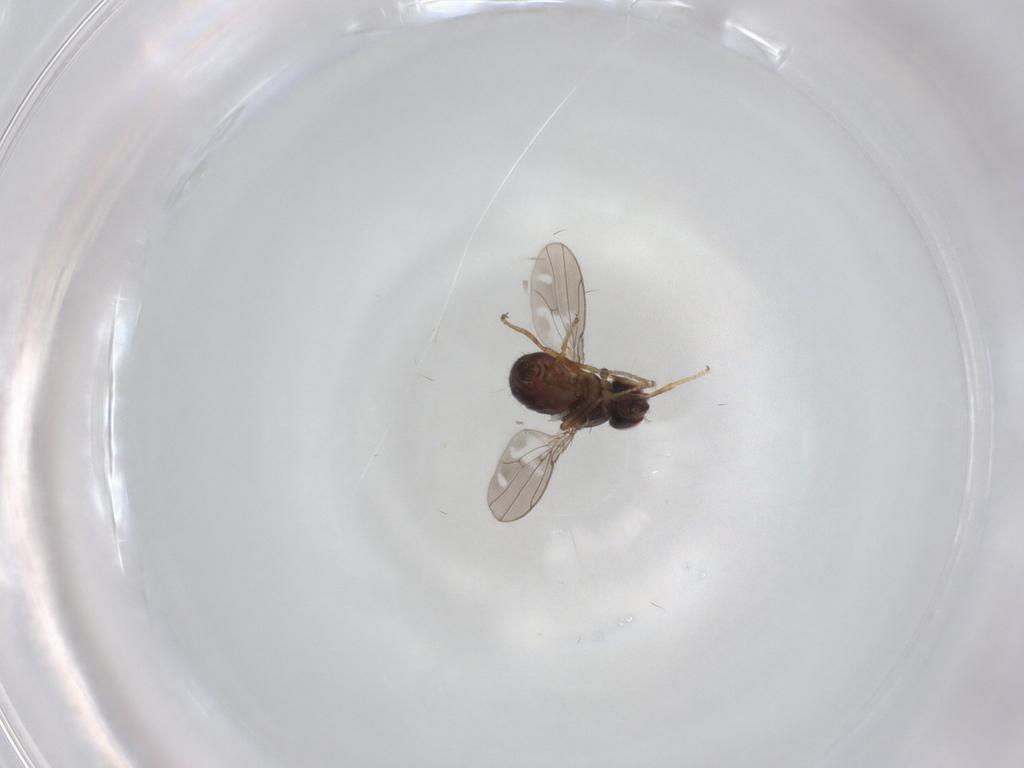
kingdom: Animalia
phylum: Arthropoda
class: Insecta
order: Diptera
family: Ephydridae
